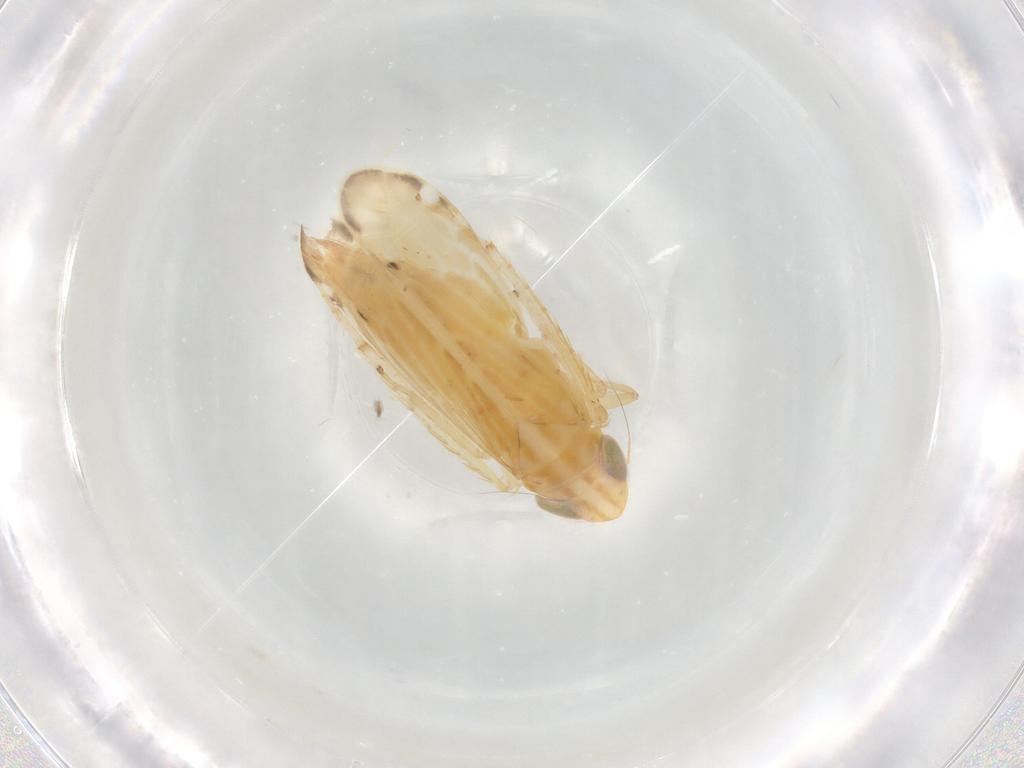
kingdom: Animalia
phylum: Arthropoda
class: Insecta
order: Hemiptera
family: Cicadellidae
